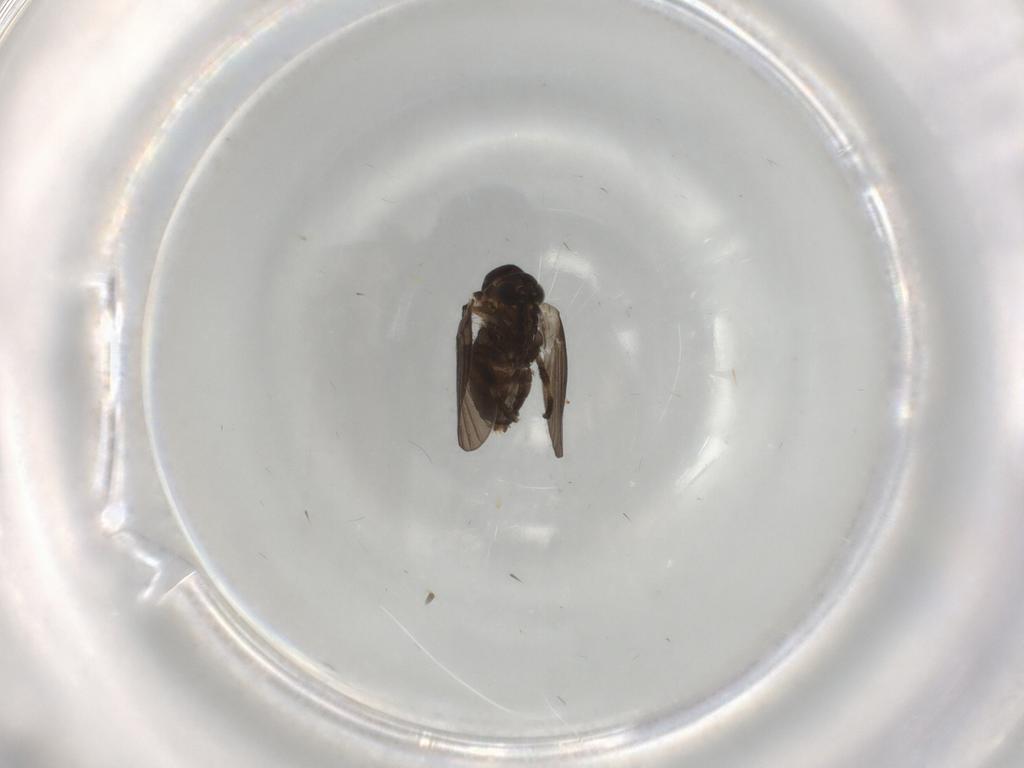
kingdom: Animalia
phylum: Arthropoda
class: Insecta
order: Diptera
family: Psychodidae
